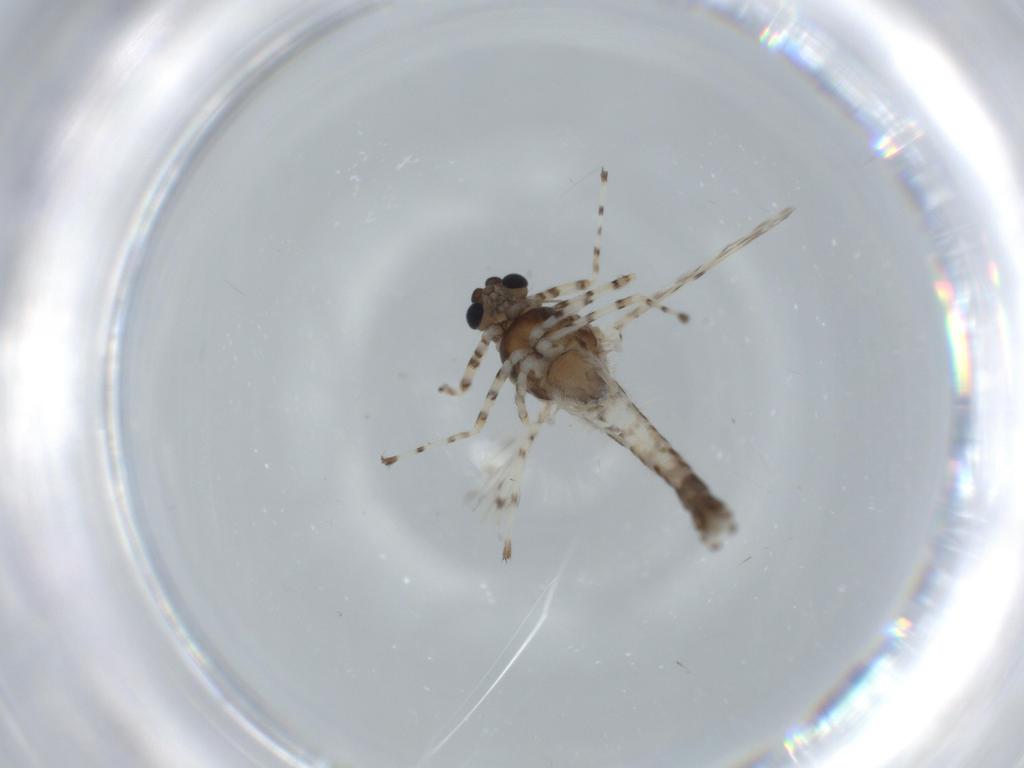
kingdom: Animalia
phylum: Arthropoda
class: Insecta
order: Diptera
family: Chironomidae
